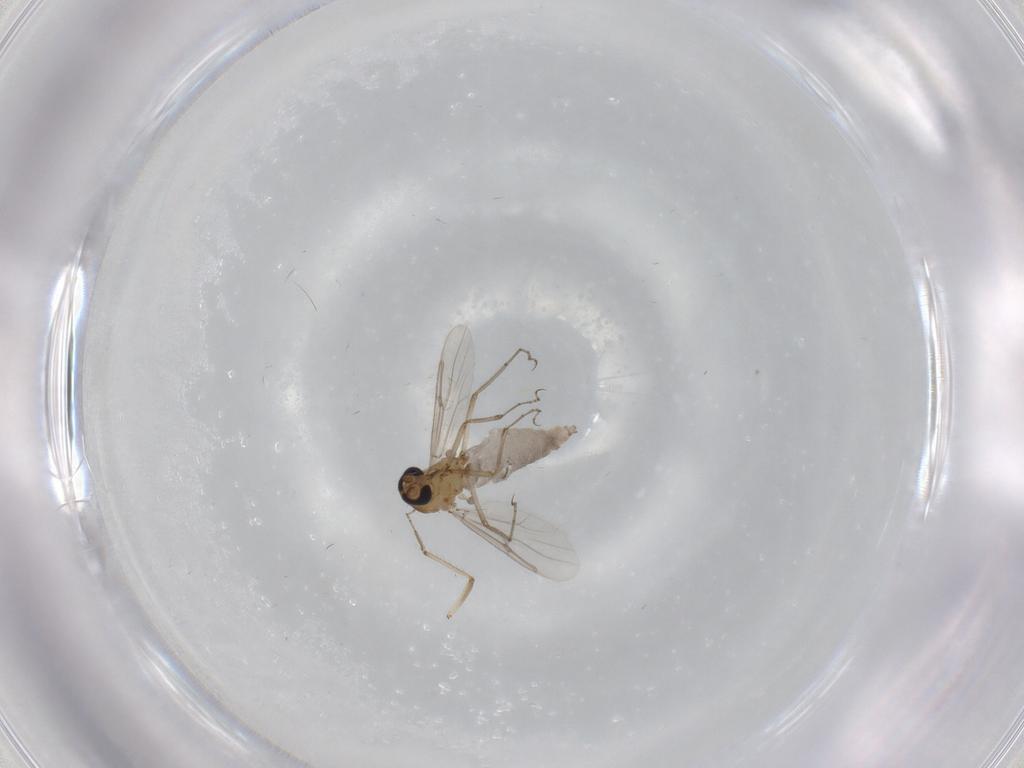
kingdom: Animalia
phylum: Arthropoda
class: Insecta
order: Diptera
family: Ceratopogonidae
